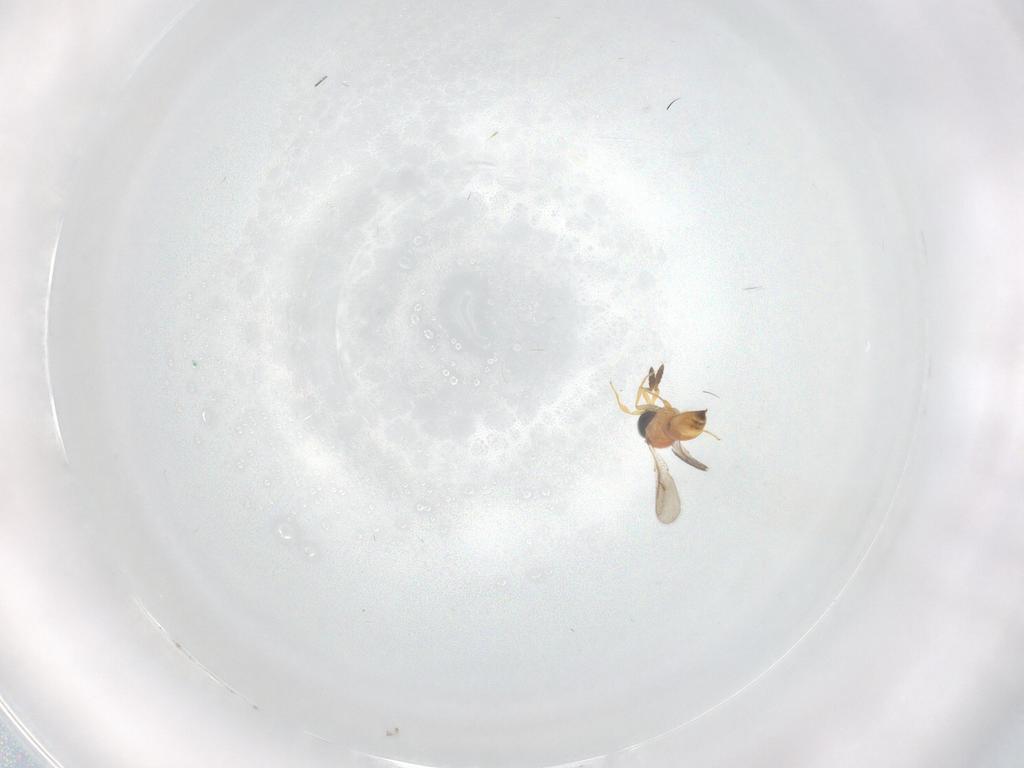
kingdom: Animalia
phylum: Arthropoda
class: Insecta
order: Hymenoptera
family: Scelionidae
